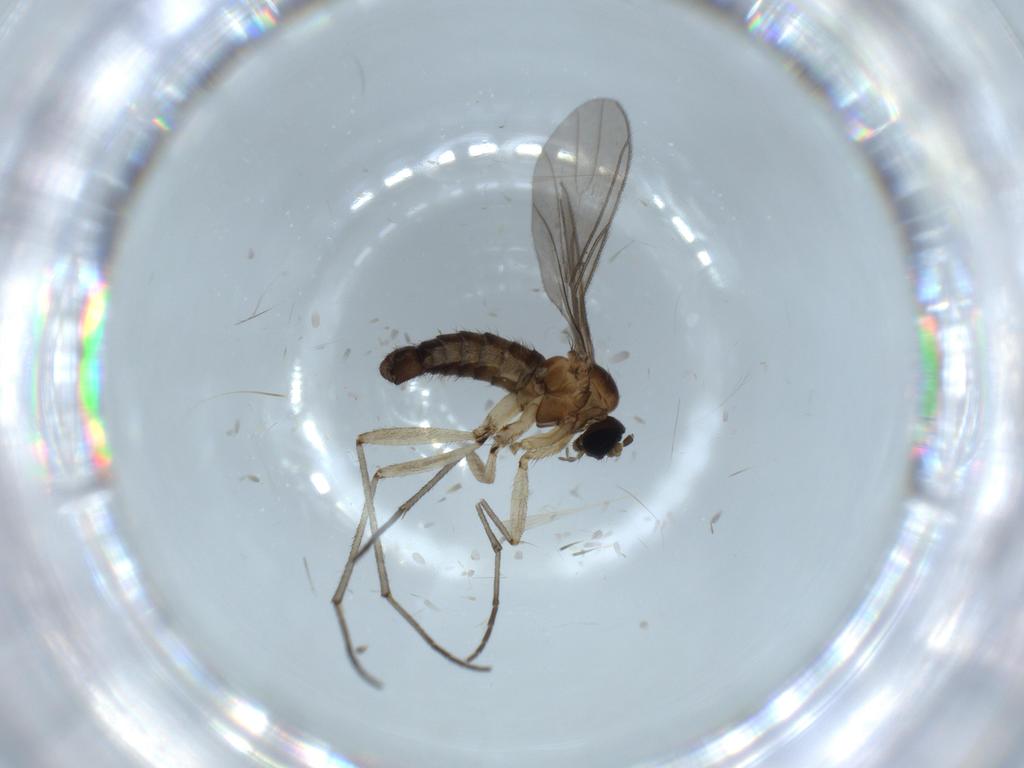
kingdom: Animalia
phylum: Arthropoda
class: Insecta
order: Diptera
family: Sciaridae
